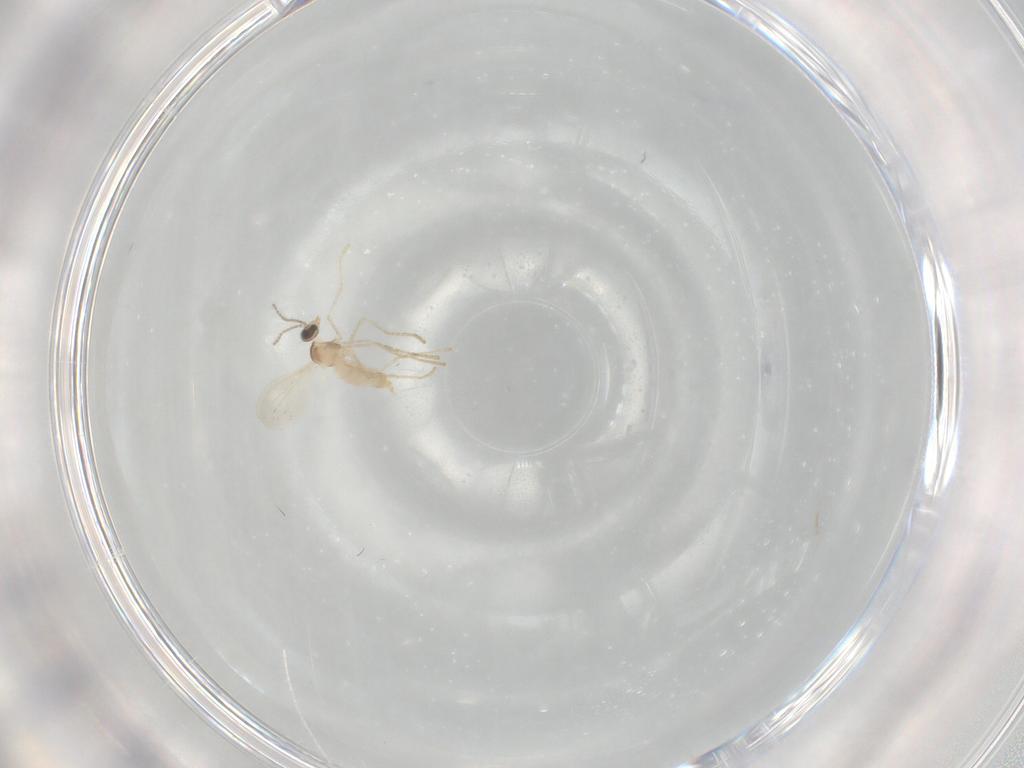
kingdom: Animalia
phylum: Arthropoda
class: Insecta
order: Diptera
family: Cecidomyiidae
